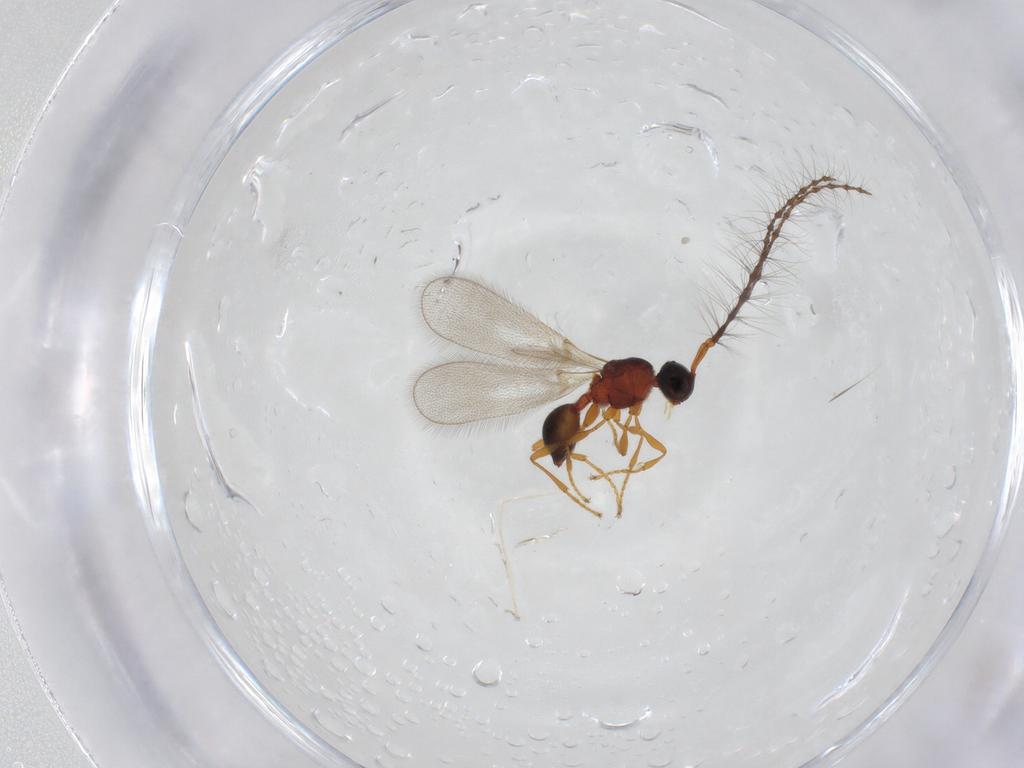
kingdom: Animalia
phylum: Arthropoda
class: Insecta
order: Hymenoptera
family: Diapriidae
